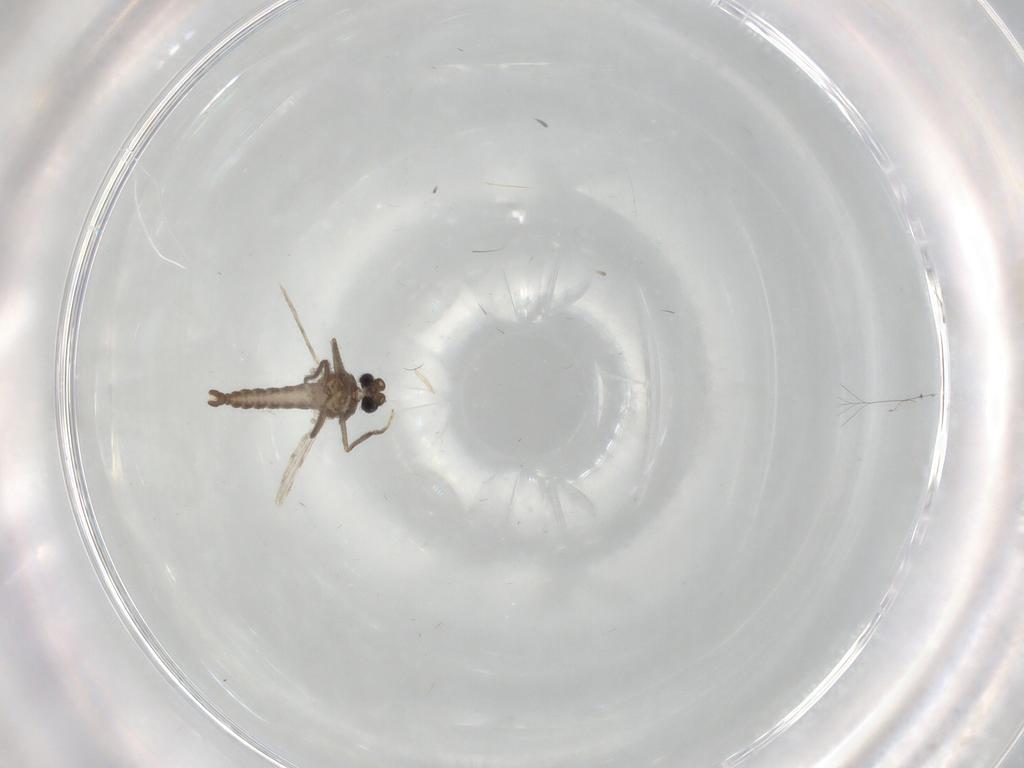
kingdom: Animalia
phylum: Arthropoda
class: Insecta
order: Diptera
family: Ceratopogonidae
